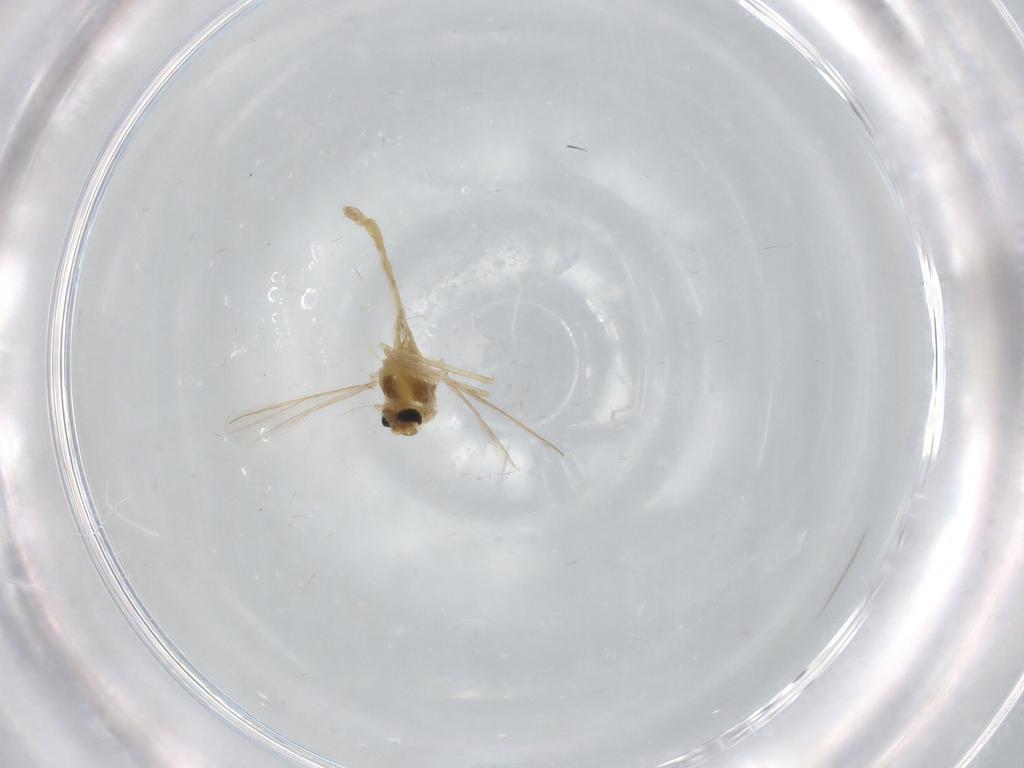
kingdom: Animalia
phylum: Arthropoda
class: Insecta
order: Diptera
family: Chironomidae
